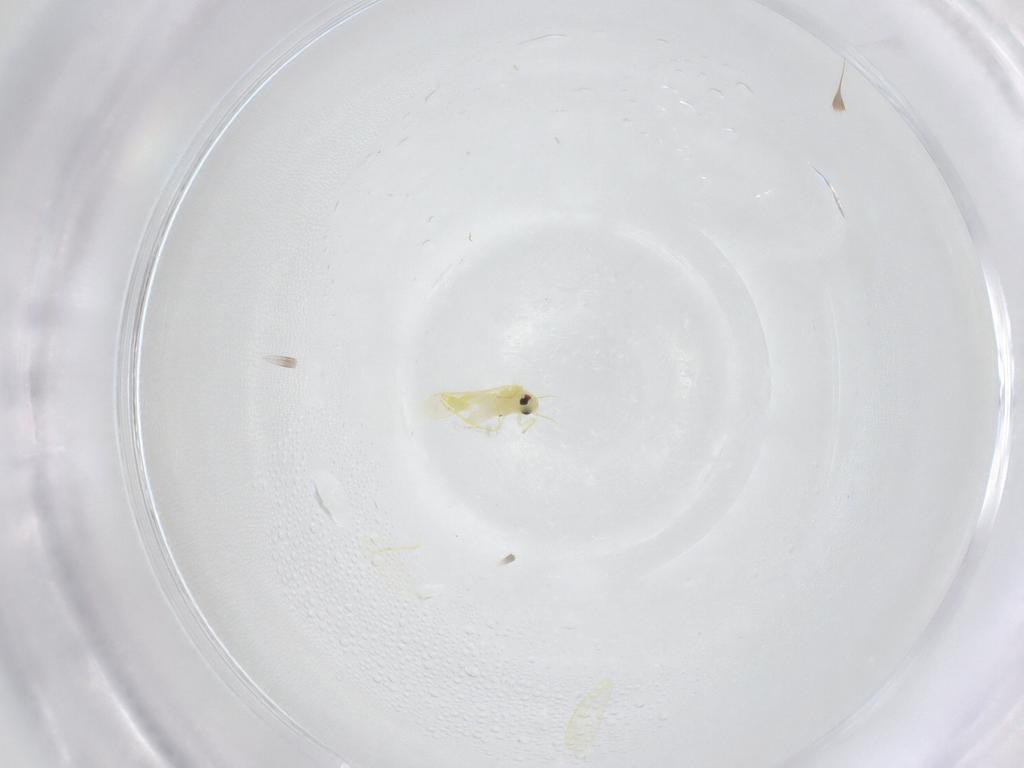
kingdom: Animalia
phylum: Arthropoda
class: Insecta
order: Hemiptera
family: Aleyrodidae
